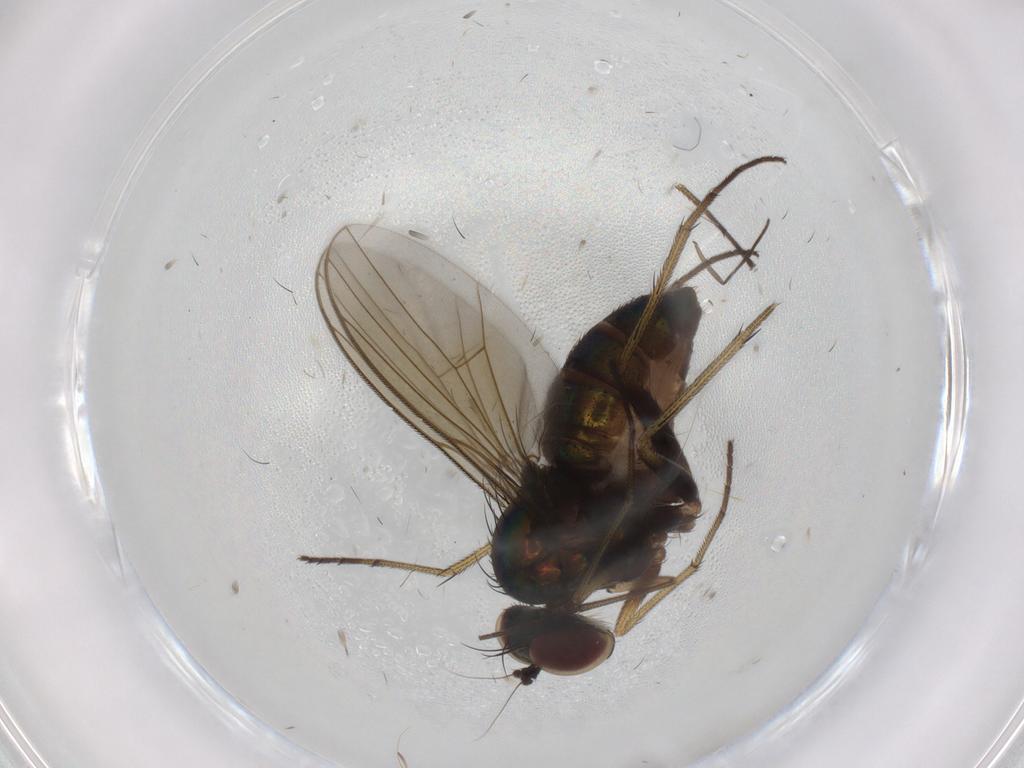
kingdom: Animalia
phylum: Arthropoda
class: Insecta
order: Diptera
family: Dolichopodidae
